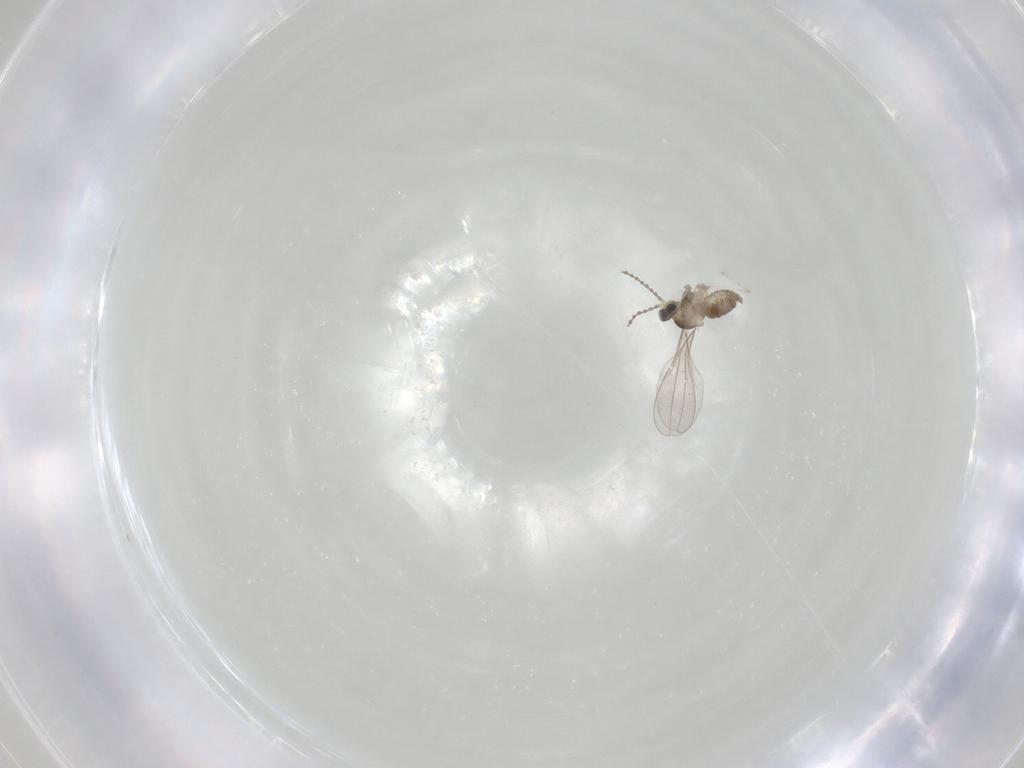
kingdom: Animalia
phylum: Arthropoda
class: Insecta
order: Diptera
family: Cecidomyiidae
